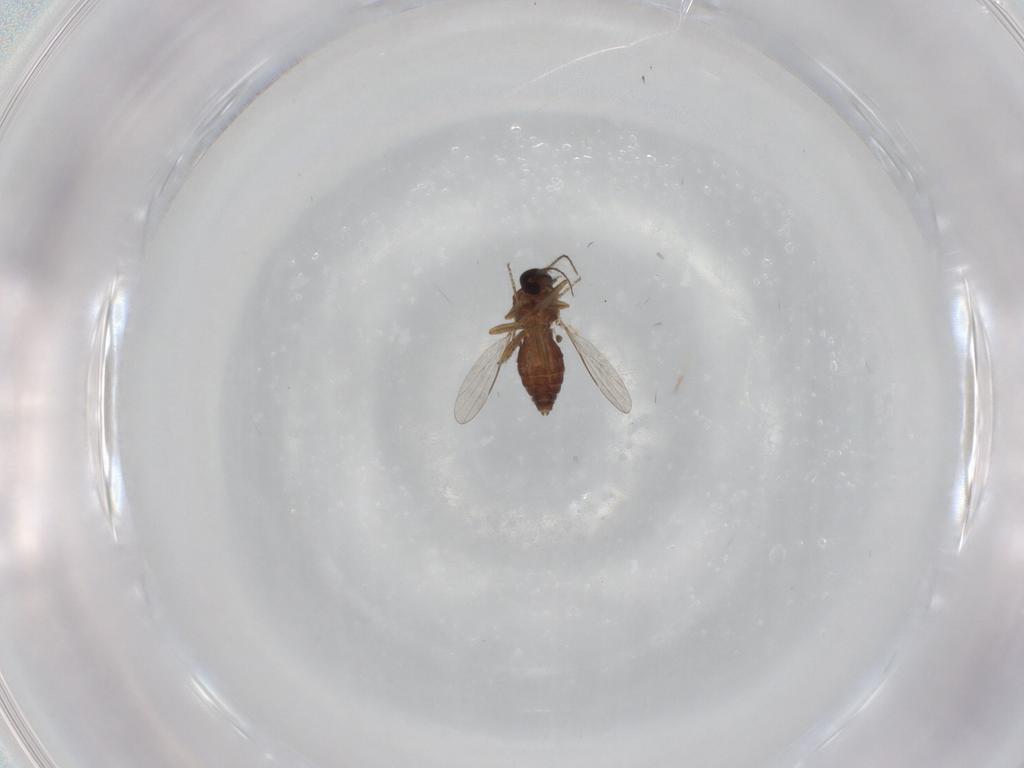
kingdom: Animalia
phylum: Arthropoda
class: Insecta
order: Diptera
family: Ceratopogonidae
